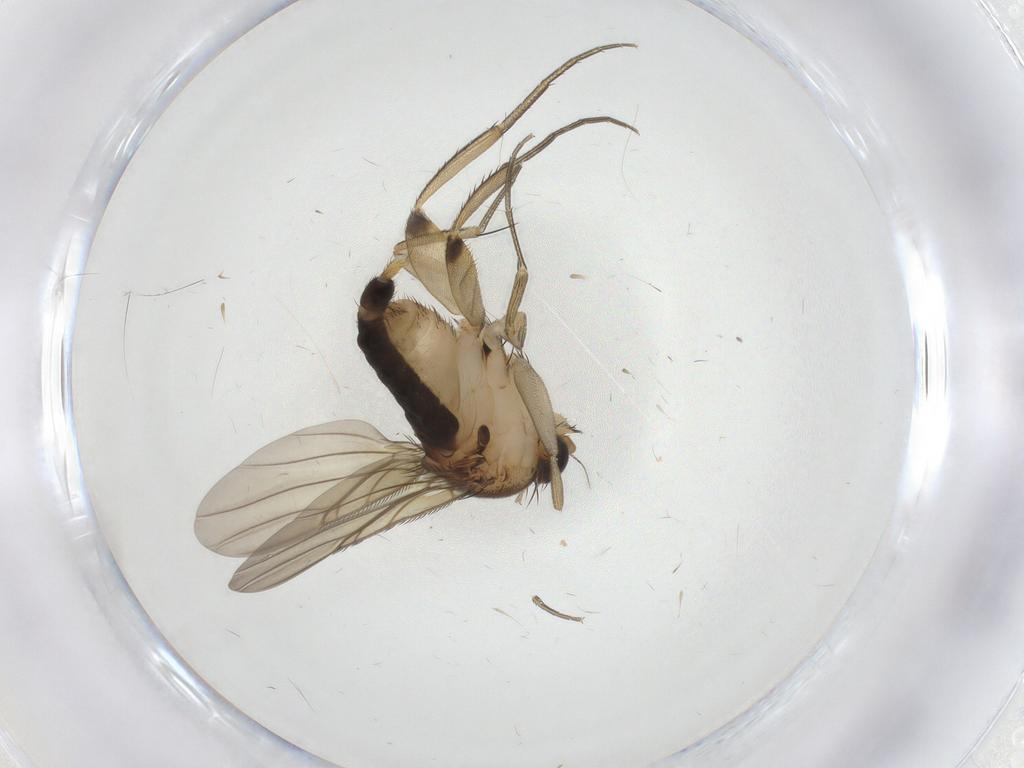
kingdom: Animalia
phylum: Arthropoda
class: Insecta
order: Diptera
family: Phoridae
